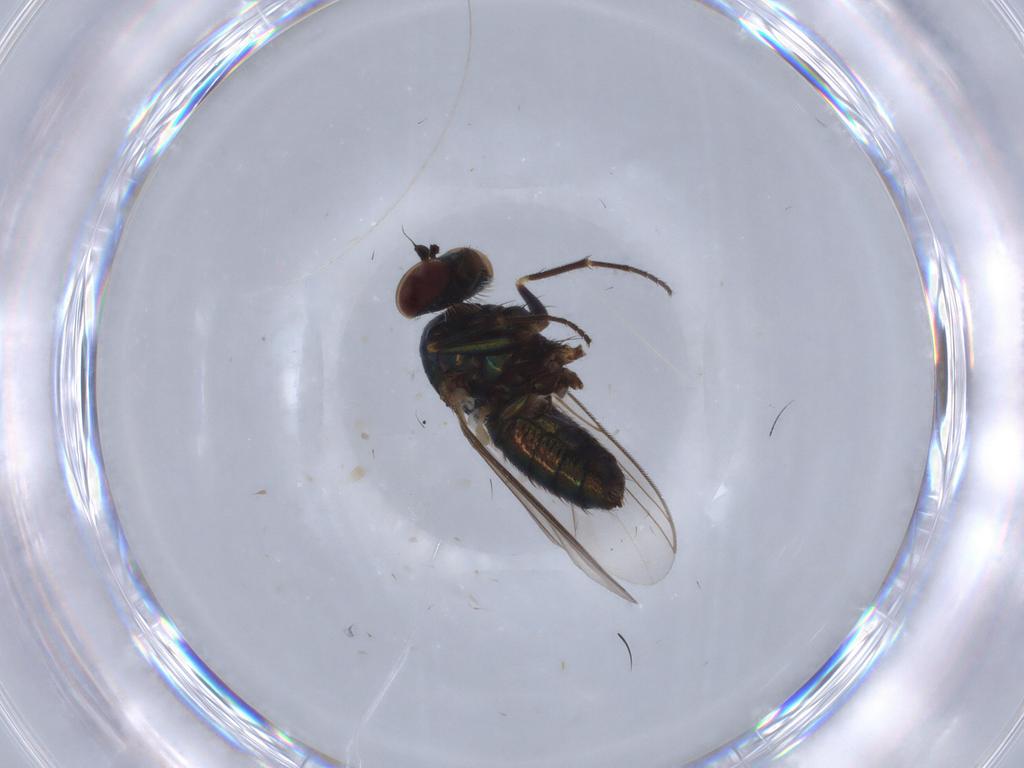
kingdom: Animalia
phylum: Arthropoda
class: Insecta
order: Diptera
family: Dolichopodidae
